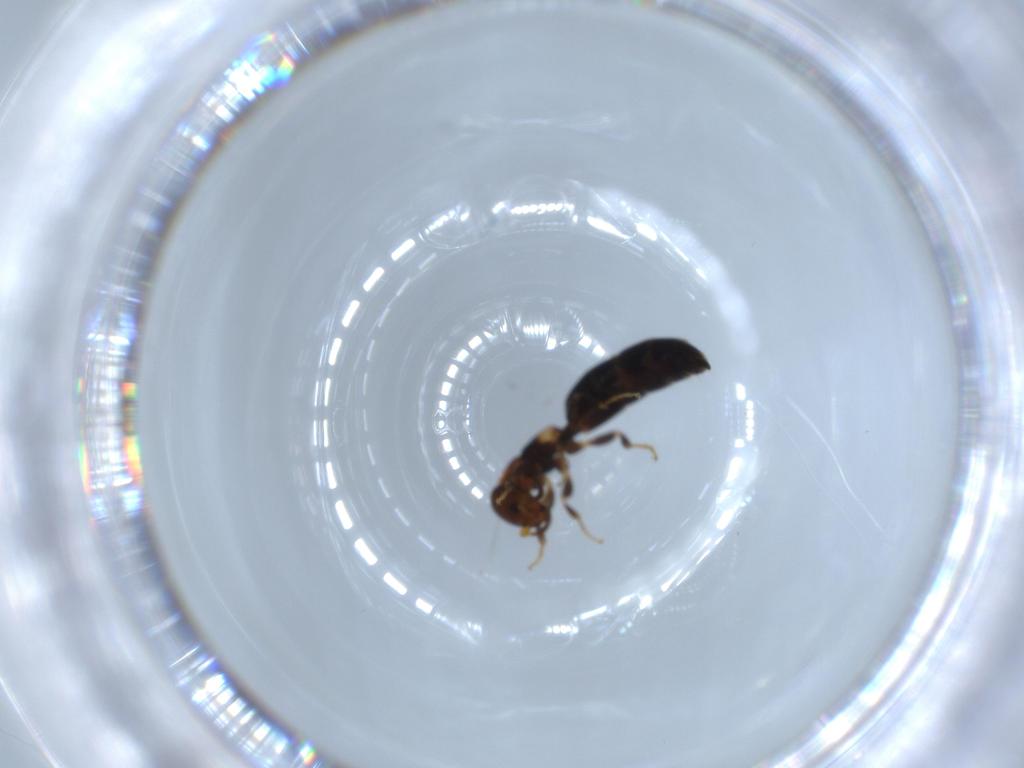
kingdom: Animalia
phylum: Arthropoda
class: Insecta
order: Hymenoptera
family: Bethylidae
